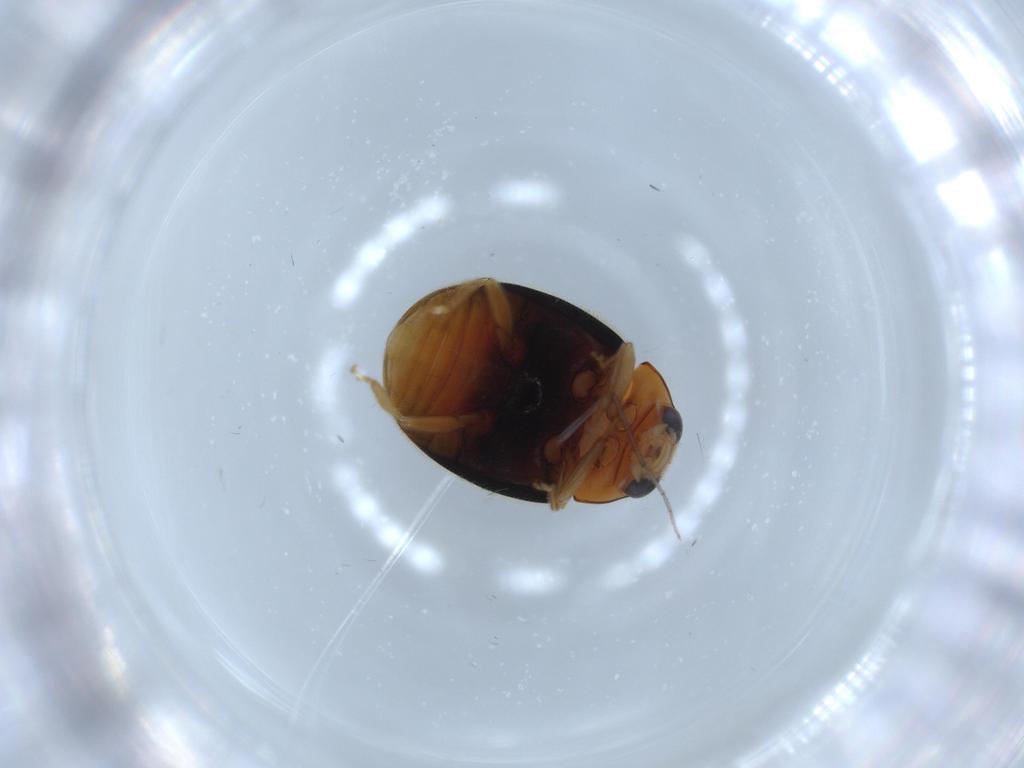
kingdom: Animalia
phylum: Arthropoda
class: Insecta
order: Coleoptera
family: Coccinellidae
